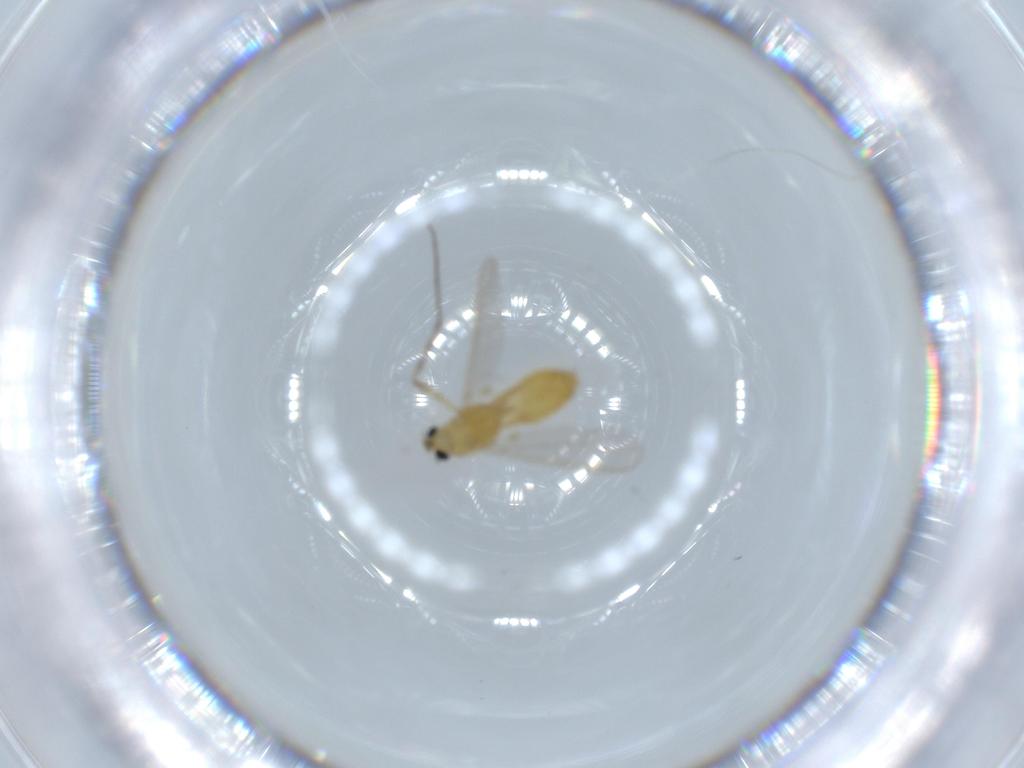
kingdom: Animalia
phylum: Arthropoda
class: Insecta
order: Diptera
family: Chironomidae
